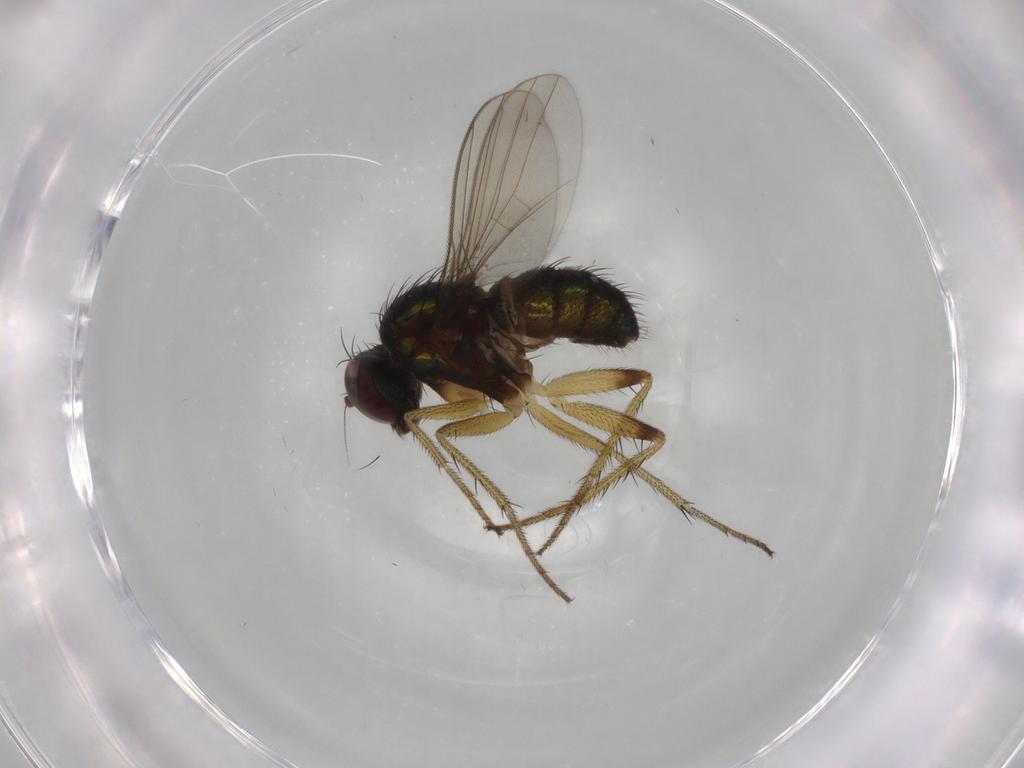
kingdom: Animalia
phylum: Arthropoda
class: Insecta
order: Diptera
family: Dolichopodidae
